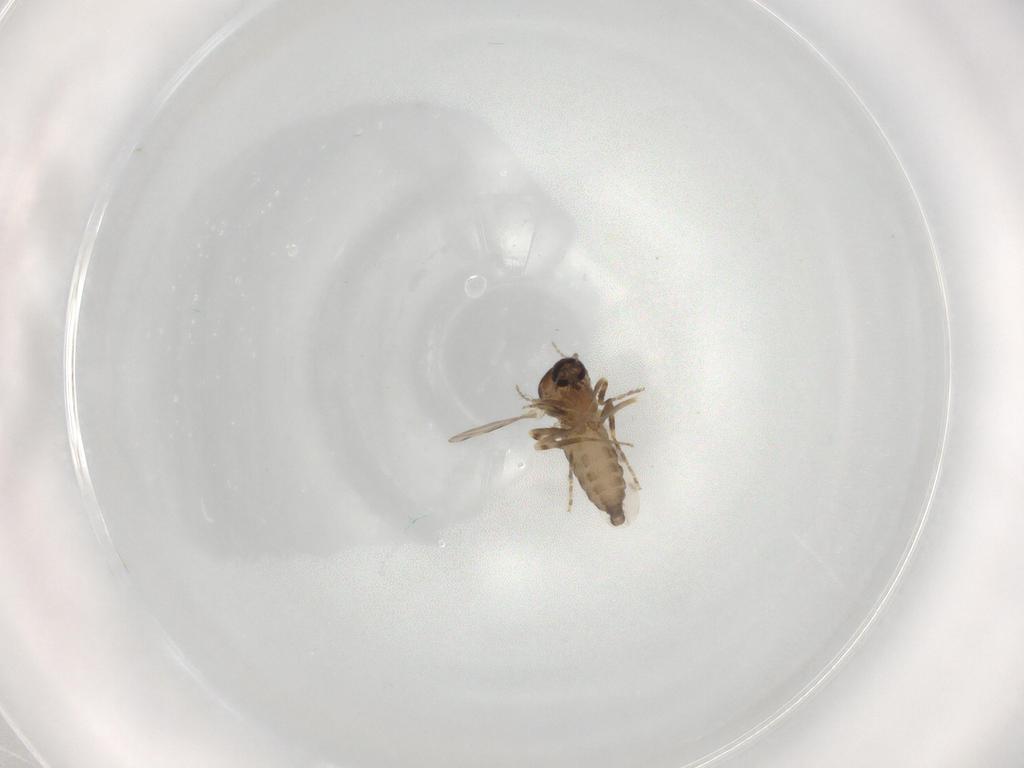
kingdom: Animalia
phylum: Arthropoda
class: Insecta
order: Diptera
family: Ceratopogonidae
